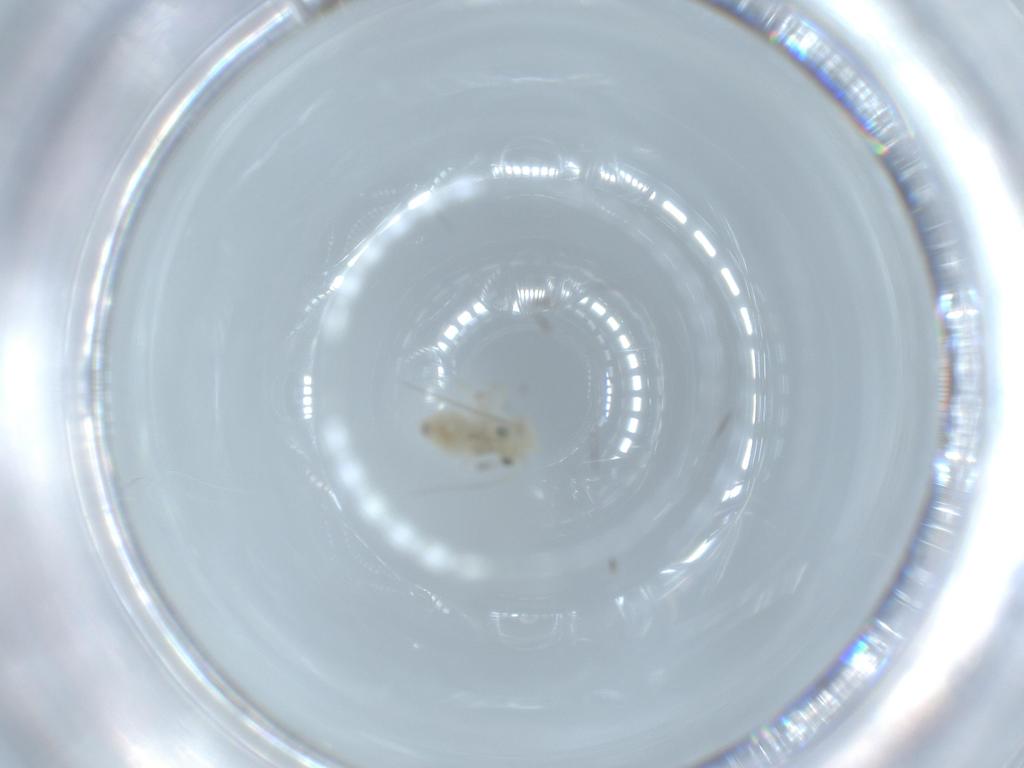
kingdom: Animalia
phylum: Arthropoda
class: Insecta
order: Psocodea
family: Caeciliusidae
